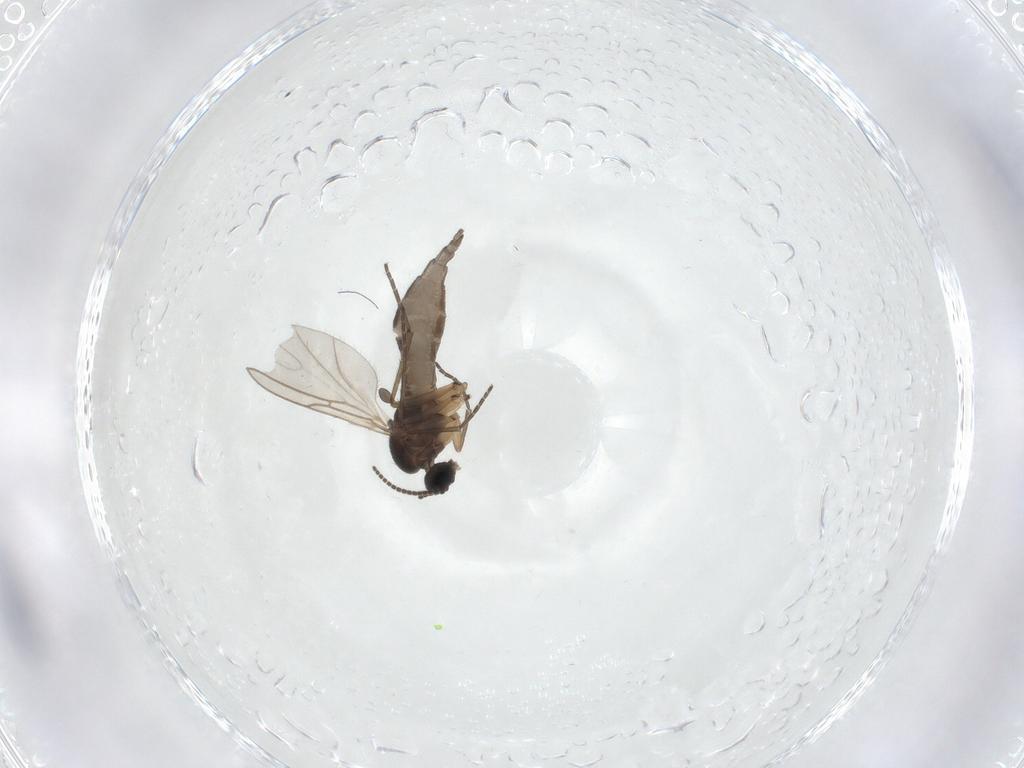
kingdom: Animalia
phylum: Arthropoda
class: Insecta
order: Diptera
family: Sciaridae
